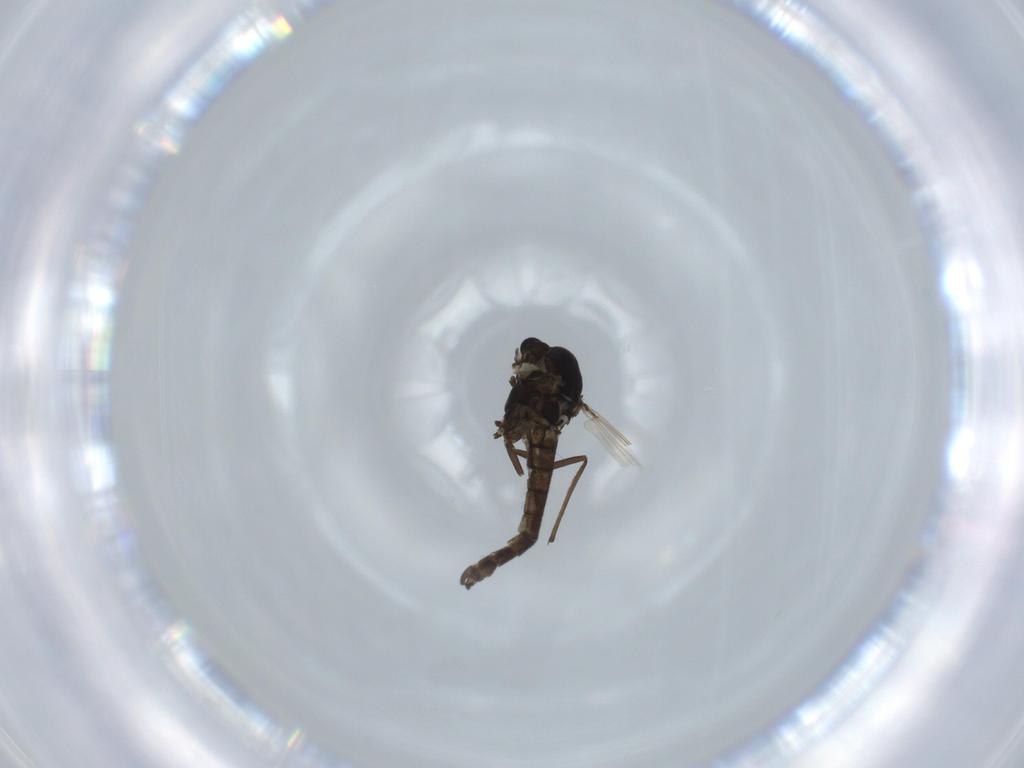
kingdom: Animalia
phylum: Arthropoda
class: Insecta
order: Diptera
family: Chironomidae
